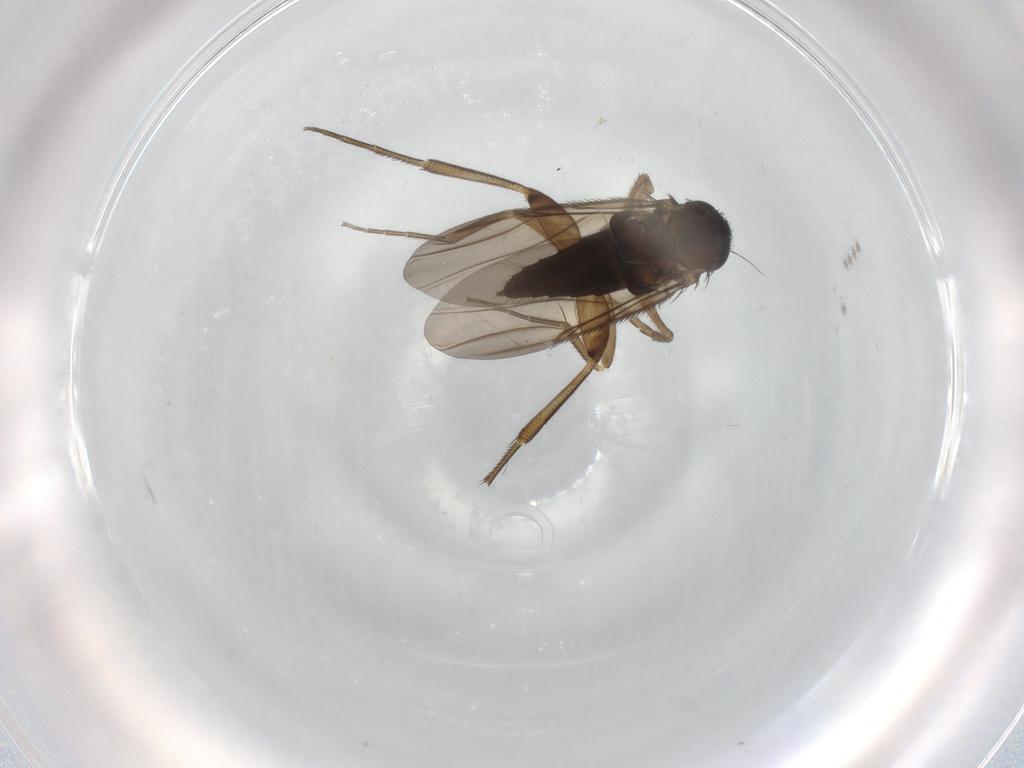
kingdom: Animalia
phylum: Arthropoda
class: Insecta
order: Diptera
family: Phoridae
